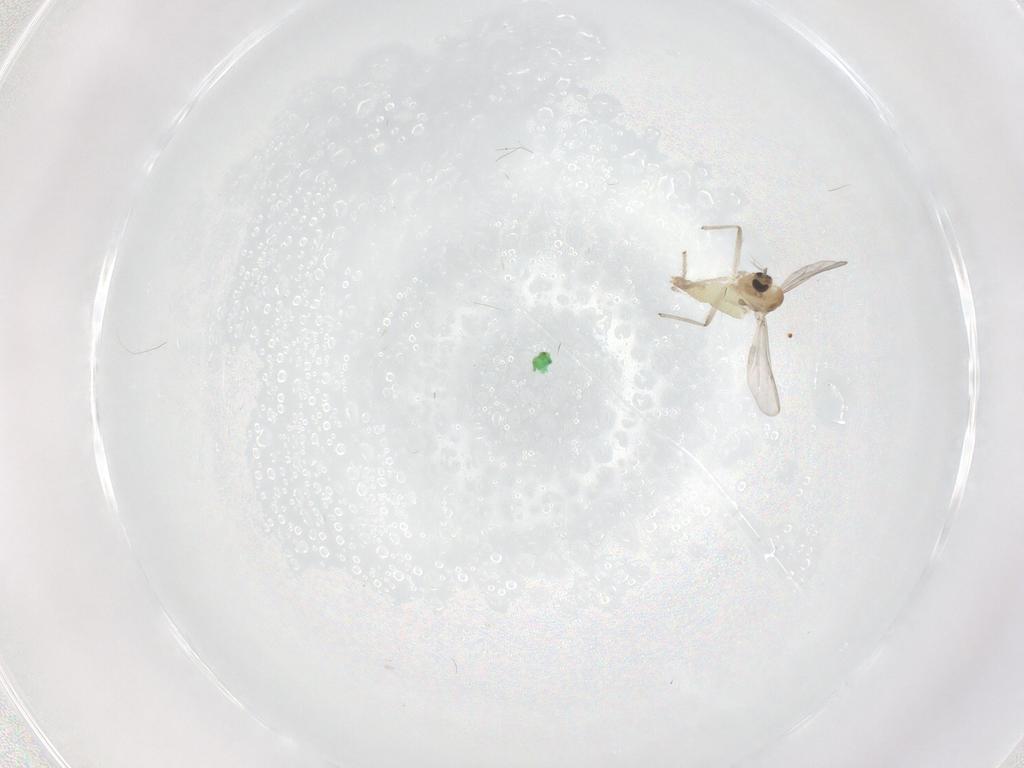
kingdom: Animalia
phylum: Arthropoda
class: Insecta
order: Diptera
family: Chironomidae
